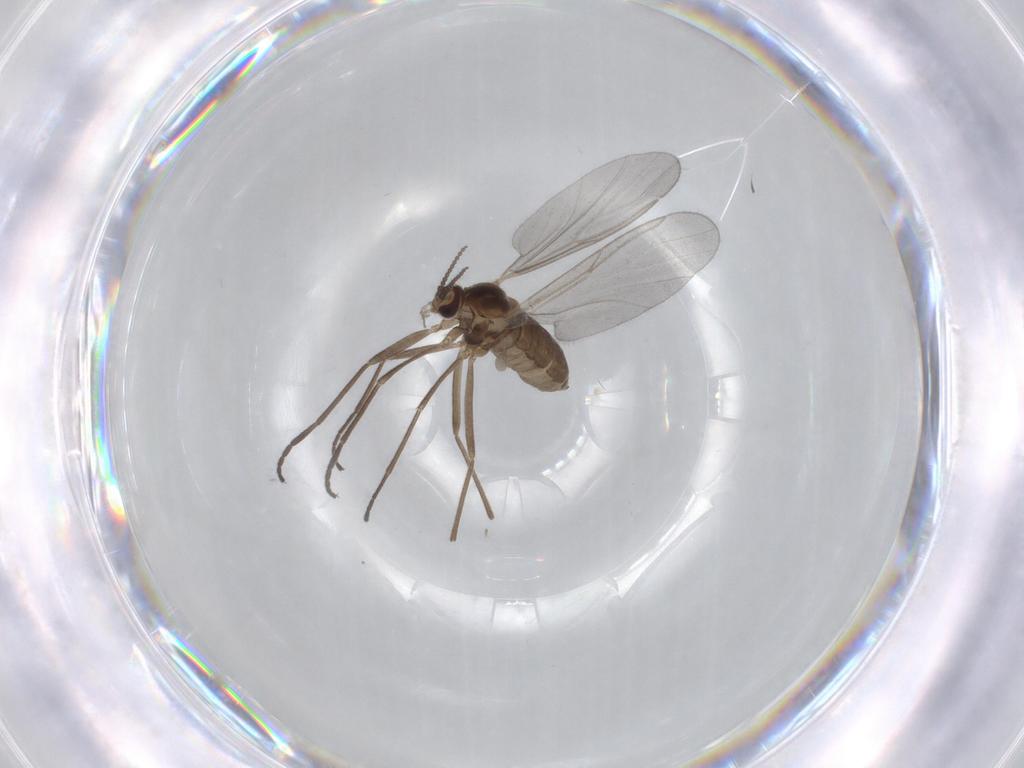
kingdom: Animalia
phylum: Arthropoda
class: Insecta
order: Diptera
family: Cecidomyiidae
